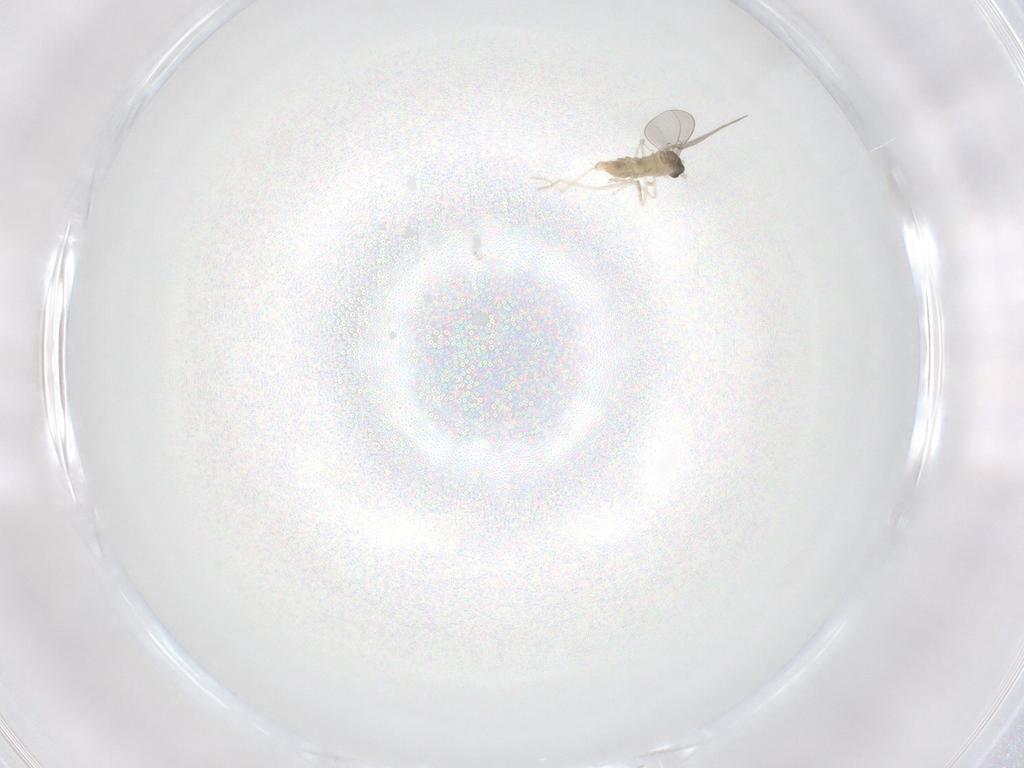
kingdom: Animalia
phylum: Arthropoda
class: Insecta
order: Diptera
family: Cecidomyiidae
